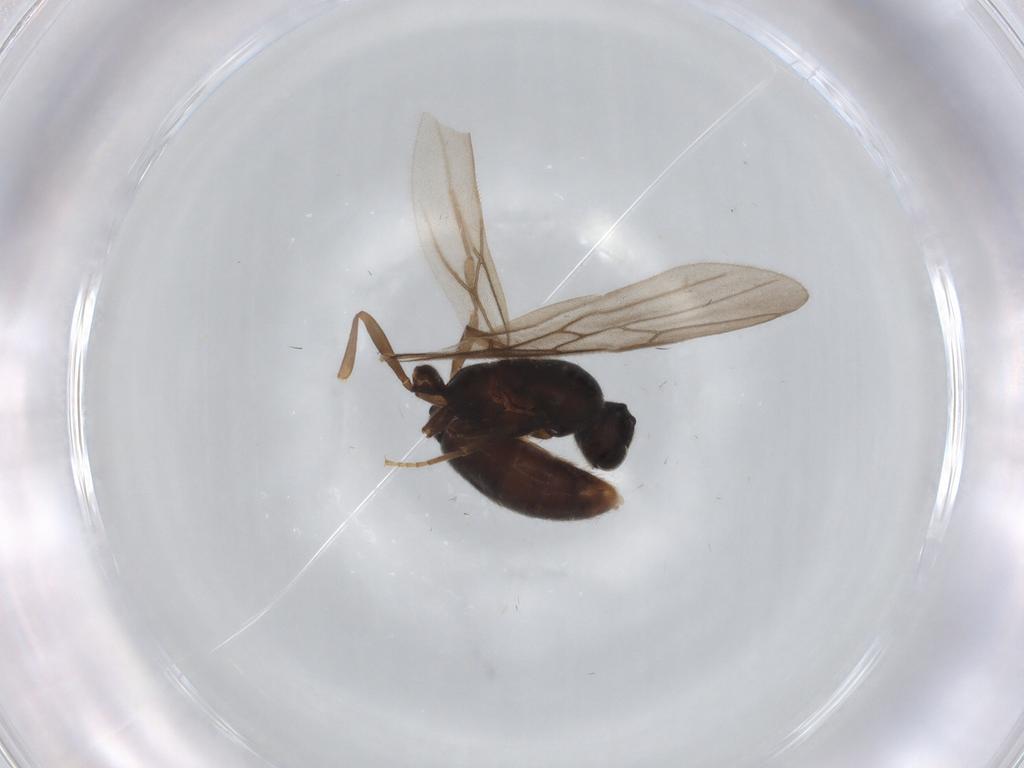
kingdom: Animalia
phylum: Arthropoda
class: Insecta
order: Hymenoptera
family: Formicidae
